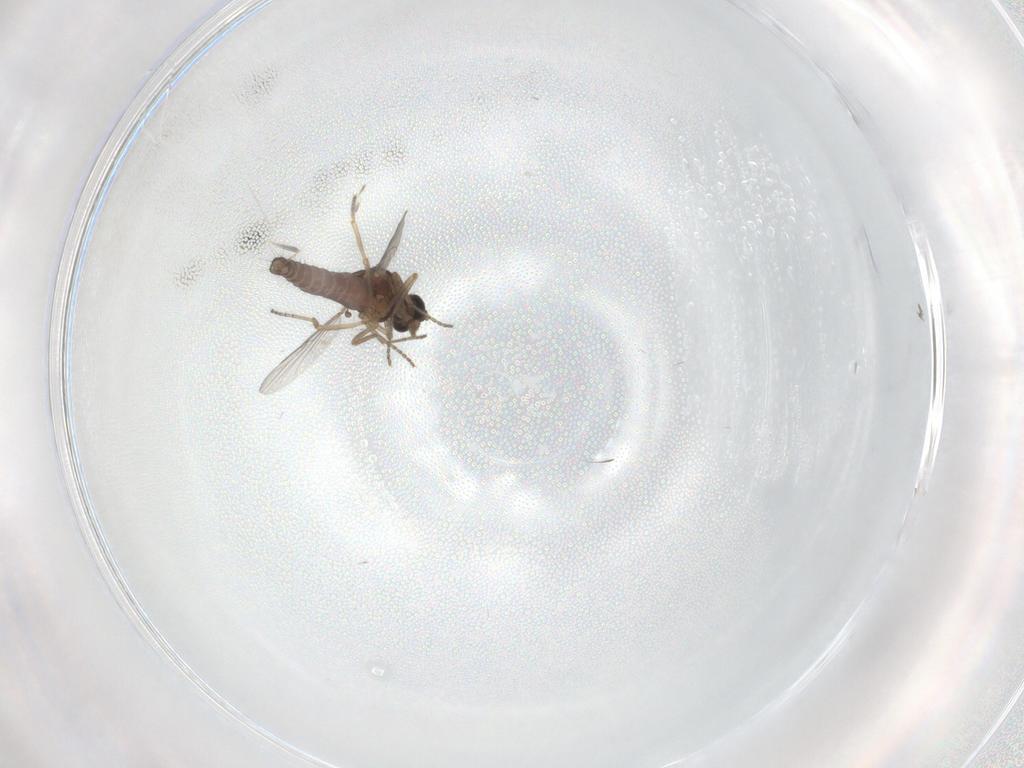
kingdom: Animalia
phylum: Arthropoda
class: Insecta
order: Diptera
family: Ceratopogonidae
